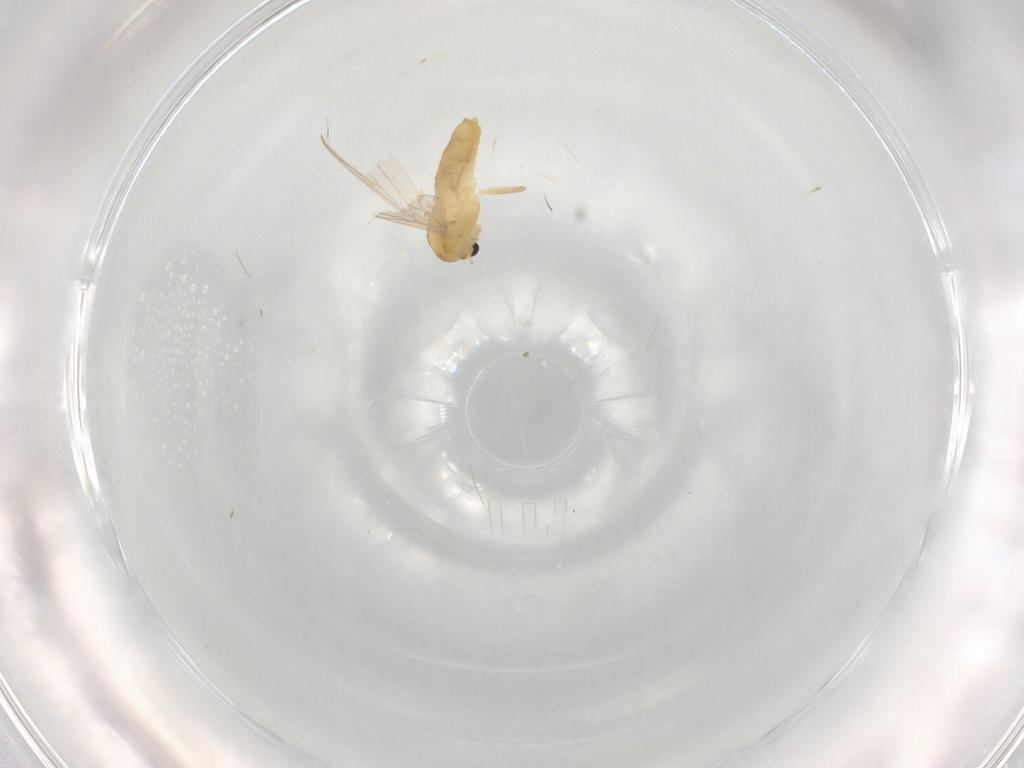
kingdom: Animalia
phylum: Arthropoda
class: Insecta
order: Diptera
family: Chironomidae
